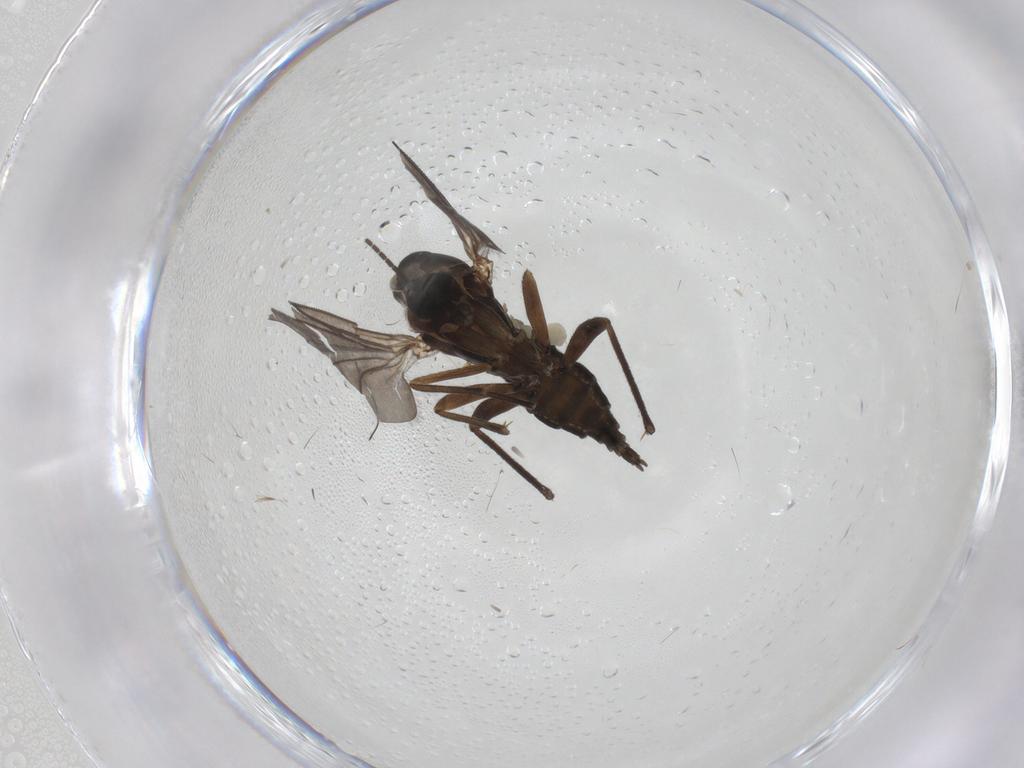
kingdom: Animalia
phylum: Arthropoda
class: Insecta
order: Diptera
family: Sciaridae
